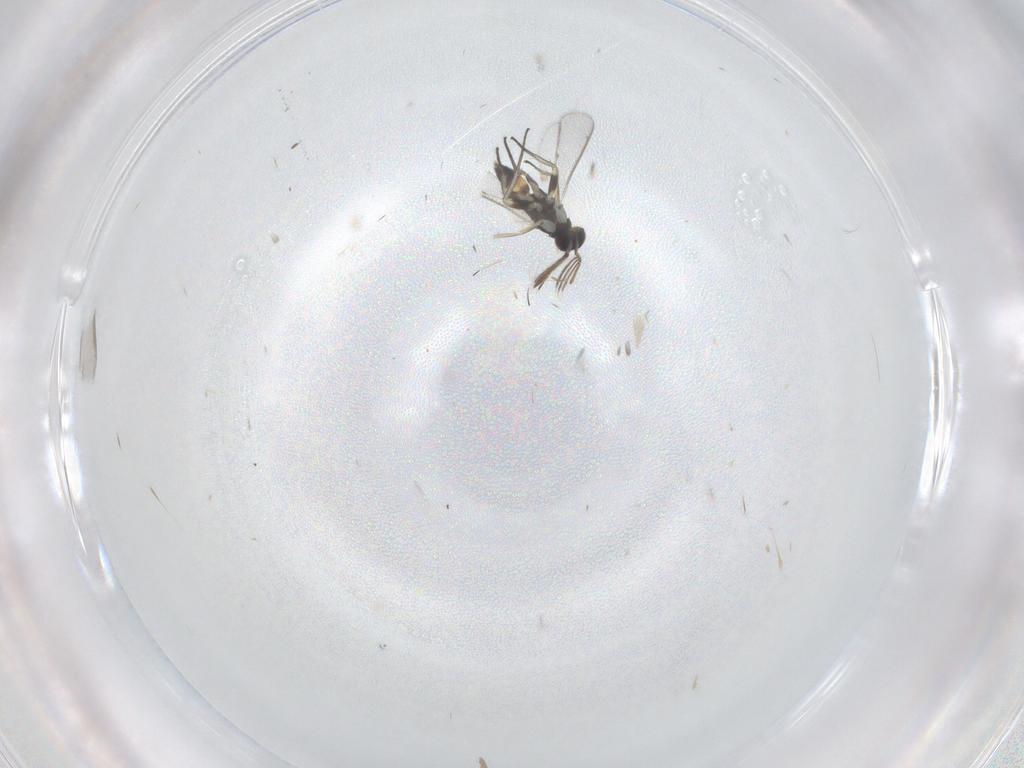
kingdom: Animalia
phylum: Arthropoda
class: Insecta
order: Hymenoptera
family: Eulophidae
